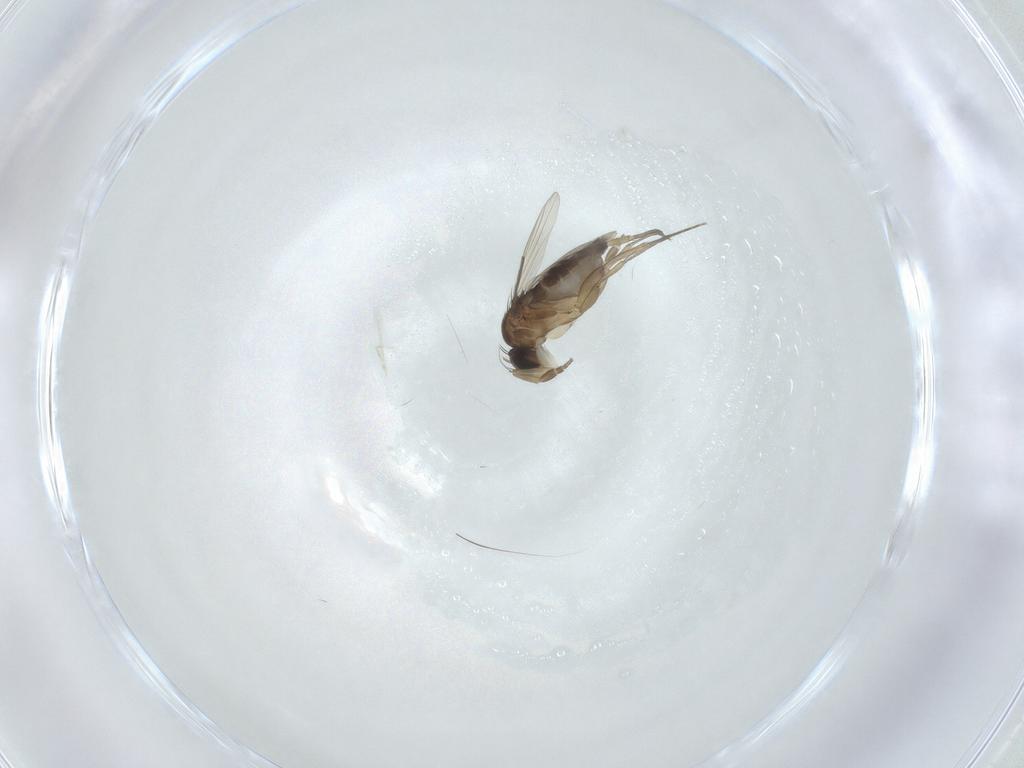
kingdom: Animalia
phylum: Arthropoda
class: Insecta
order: Diptera
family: Phoridae
